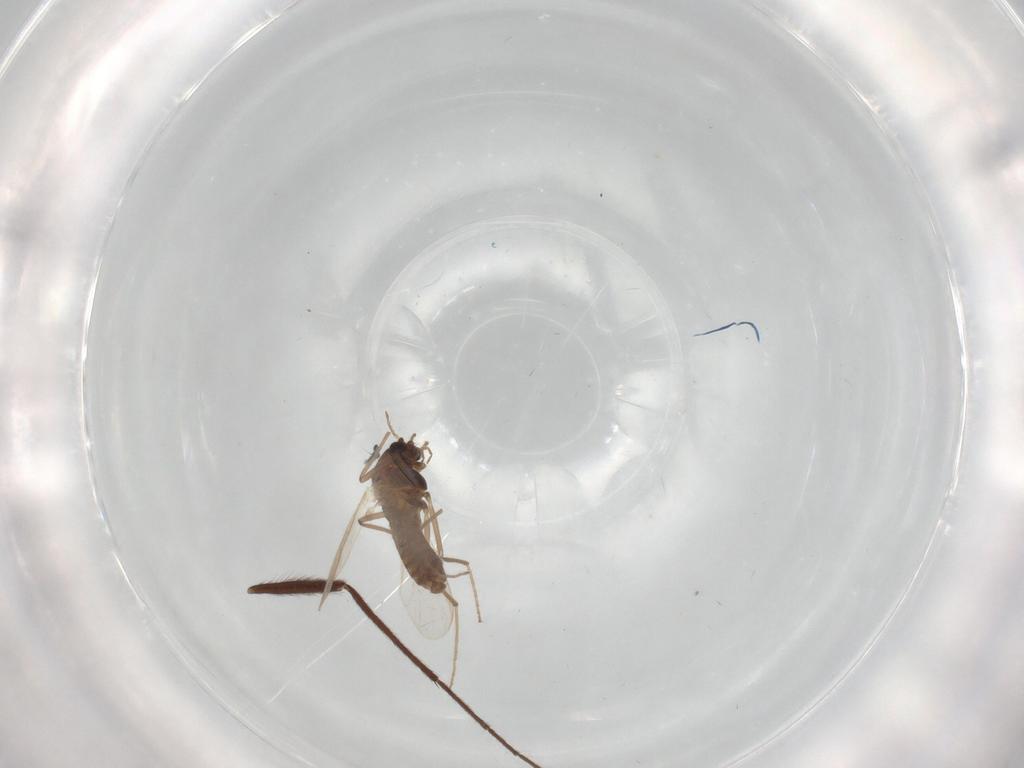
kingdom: Animalia
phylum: Arthropoda
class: Insecta
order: Diptera
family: Chironomidae
